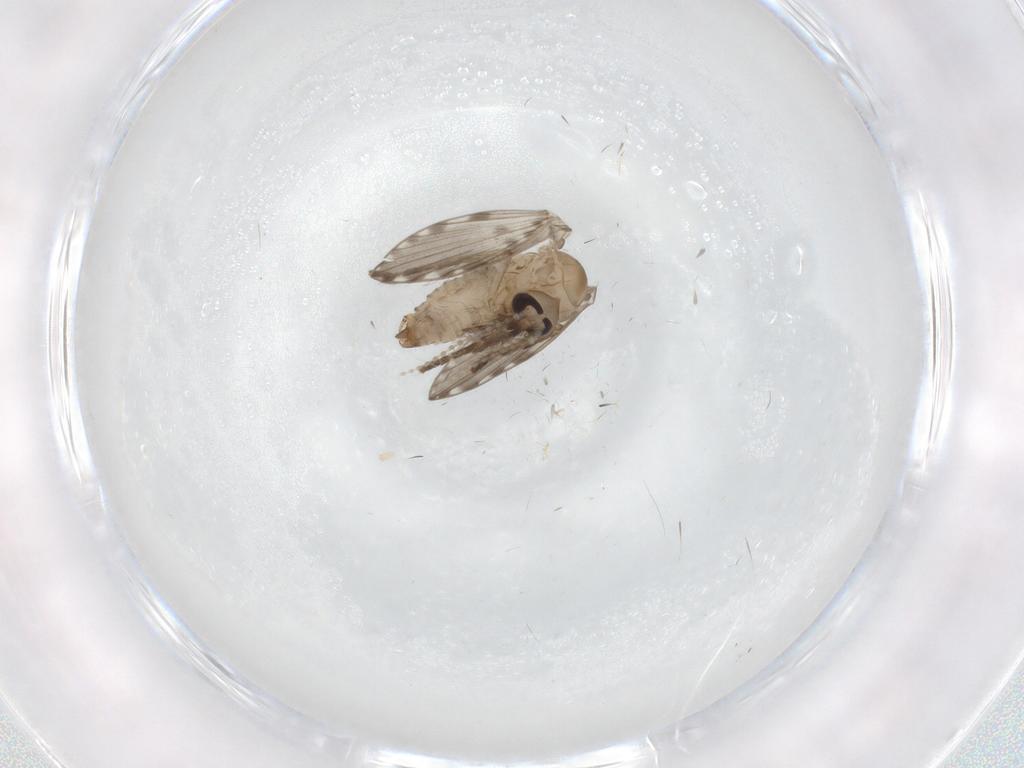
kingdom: Animalia
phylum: Arthropoda
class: Insecta
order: Diptera
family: Psychodidae
